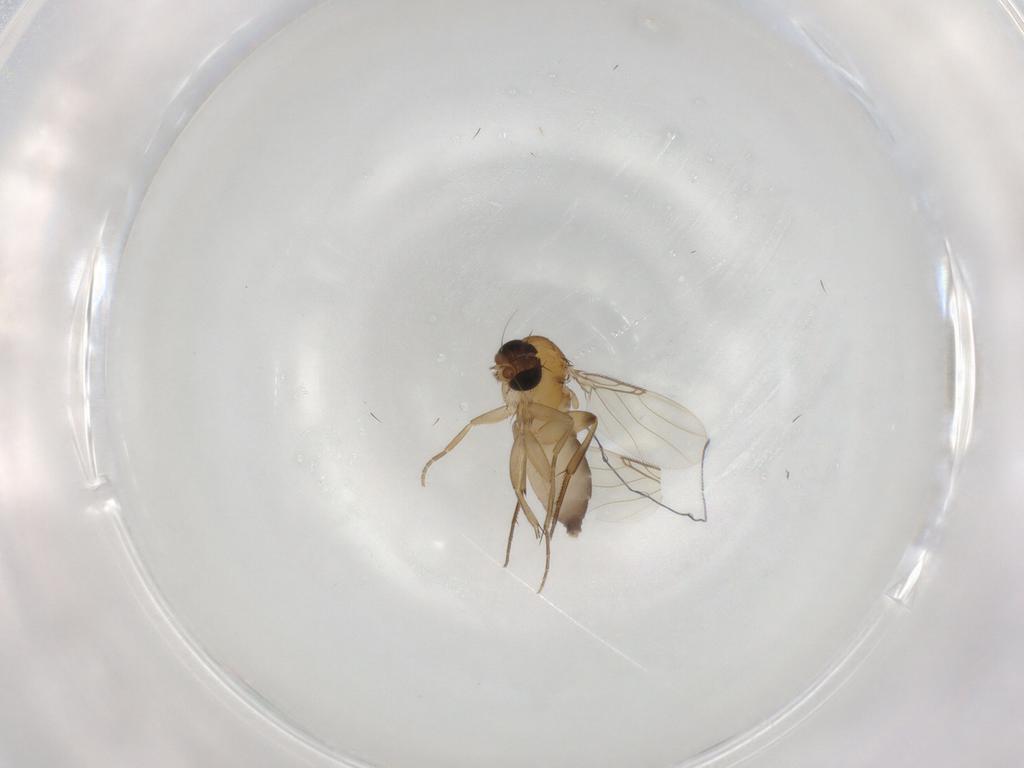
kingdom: Animalia
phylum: Arthropoda
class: Insecta
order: Diptera
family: Phoridae
